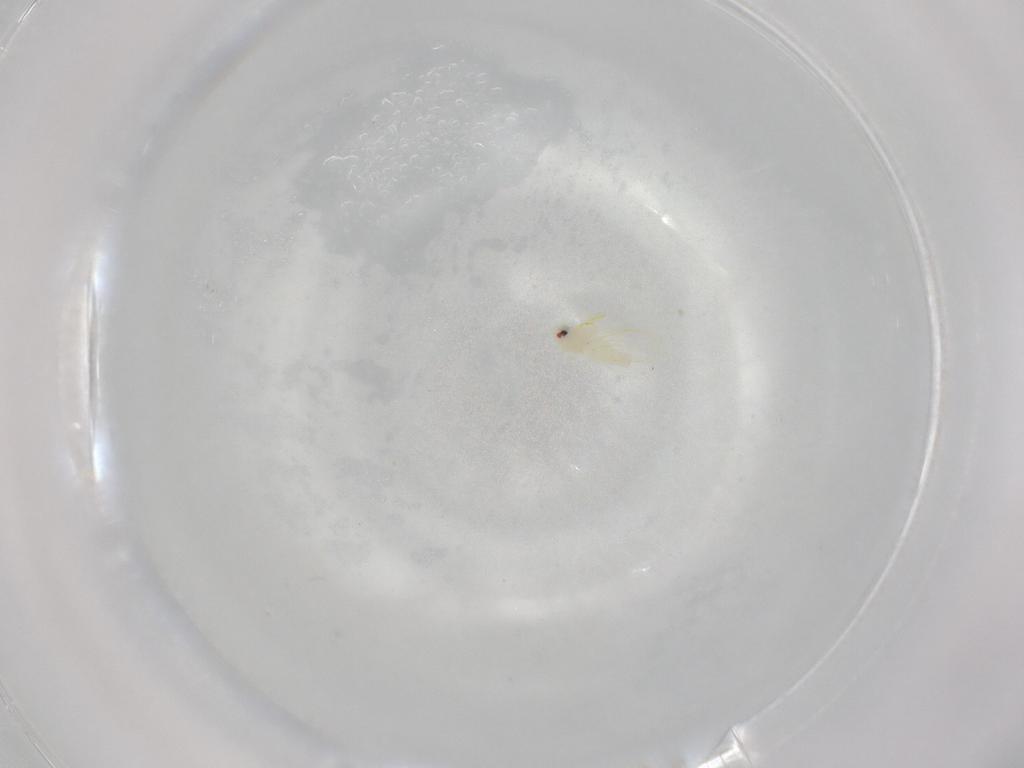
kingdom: Animalia
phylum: Arthropoda
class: Insecta
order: Hemiptera
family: Aleyrodidae
